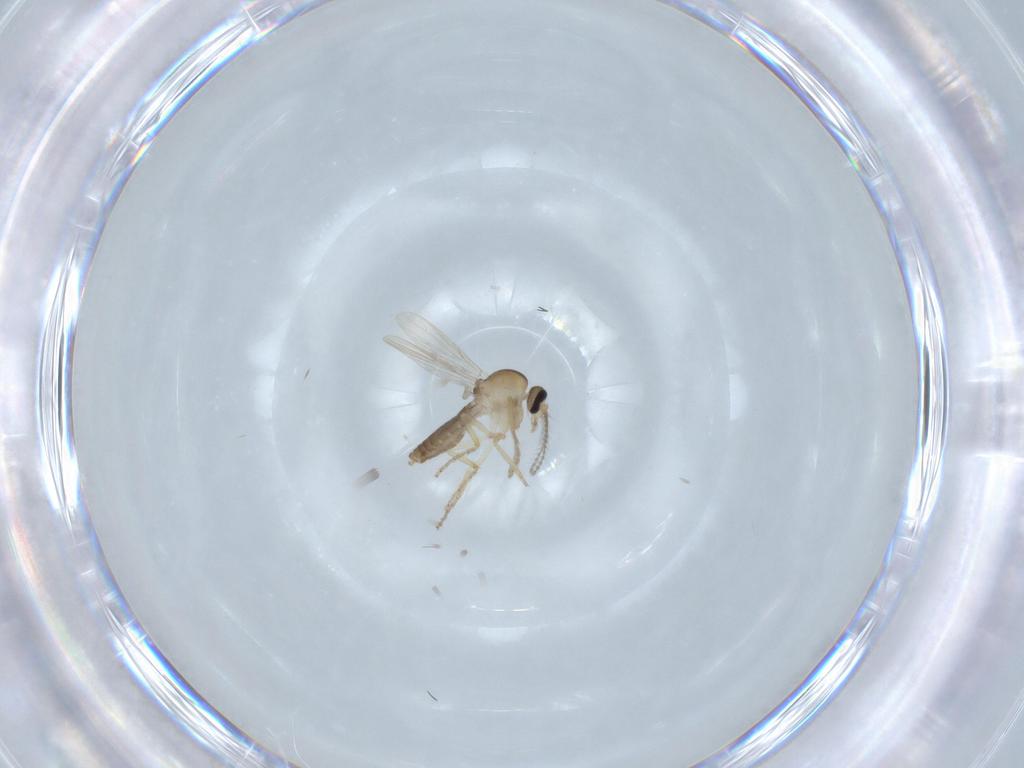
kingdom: Animalia
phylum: Arthropoda
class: Insecta
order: Diptera
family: Ceratopogonidae
